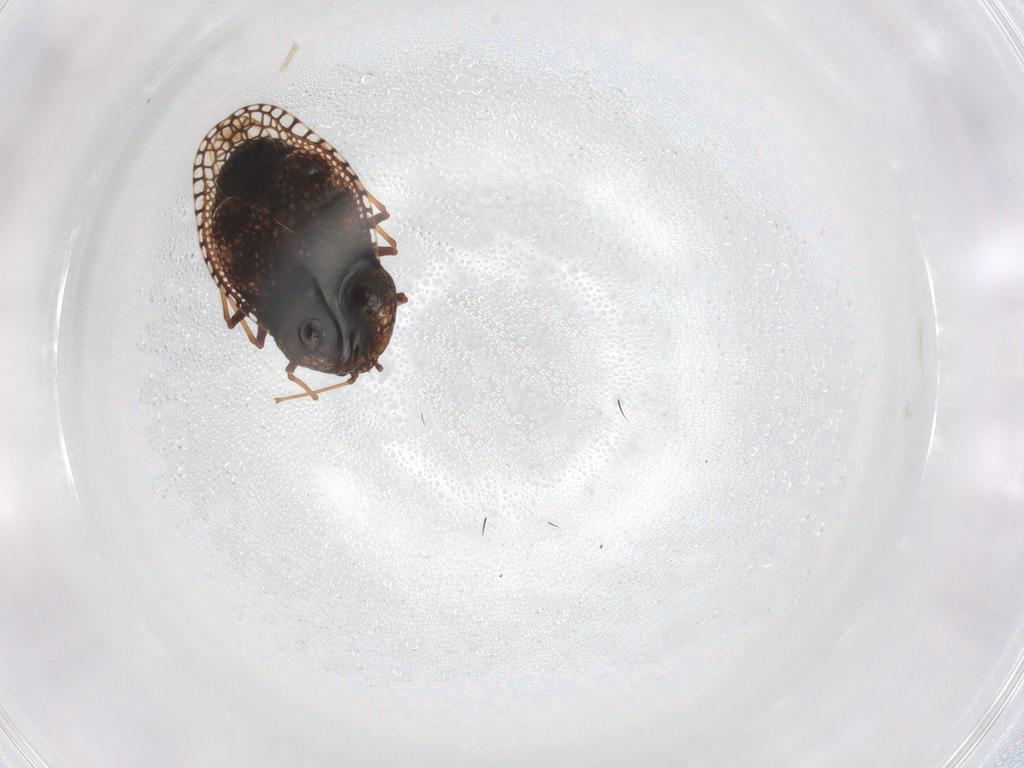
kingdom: Animalia
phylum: Arthropoda
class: Insecta
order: Hemiptera
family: Tingidae
